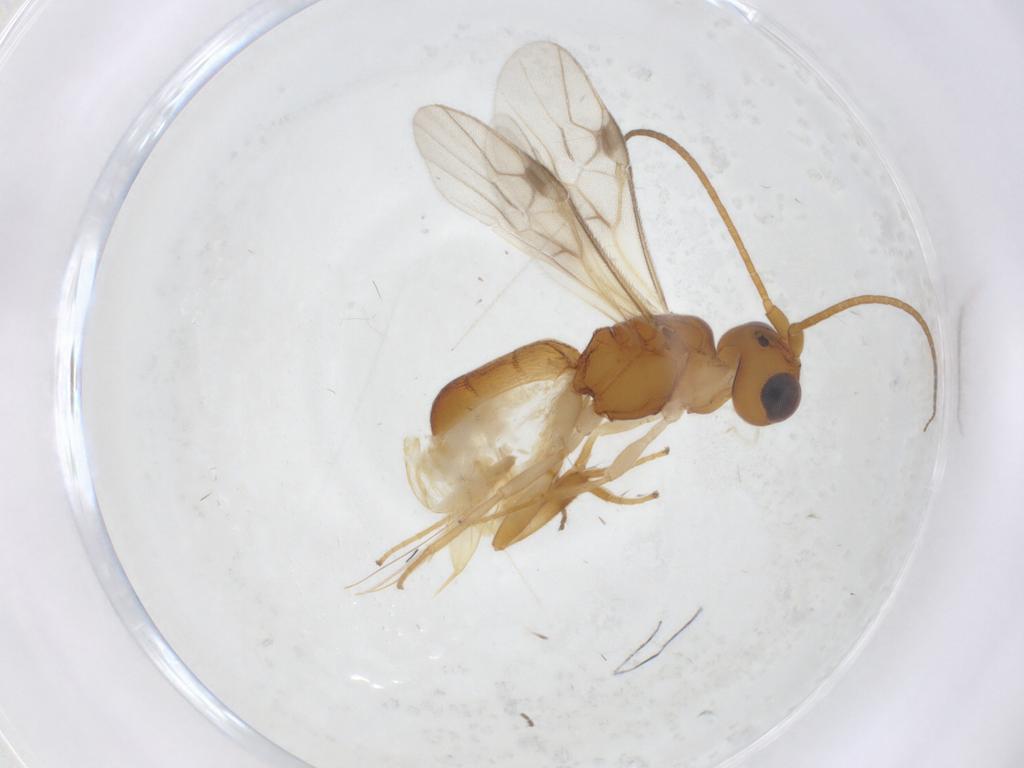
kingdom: Animalia
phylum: Arthropoda
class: Insecta
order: Hymenoptera
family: Braconidae
